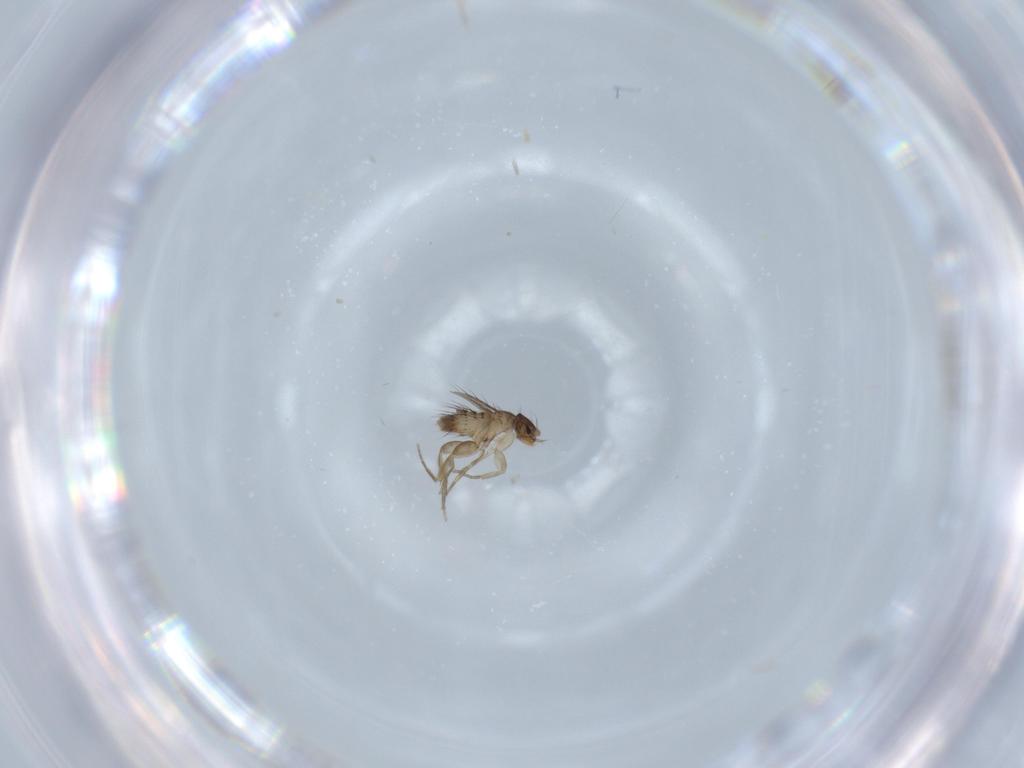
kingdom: Animalia
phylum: Arthropoda
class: Insecta
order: Diptera
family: Phoridae
